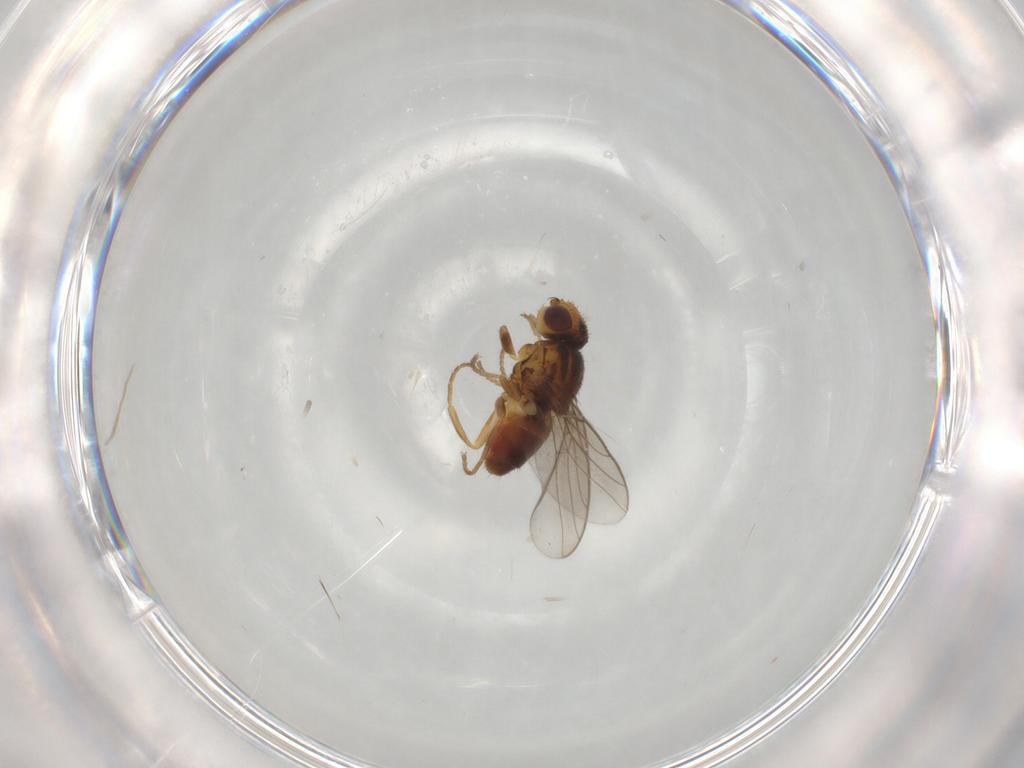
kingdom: Animalia
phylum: Arthropoda
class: Insecta
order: Diptera
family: Chloropidae
